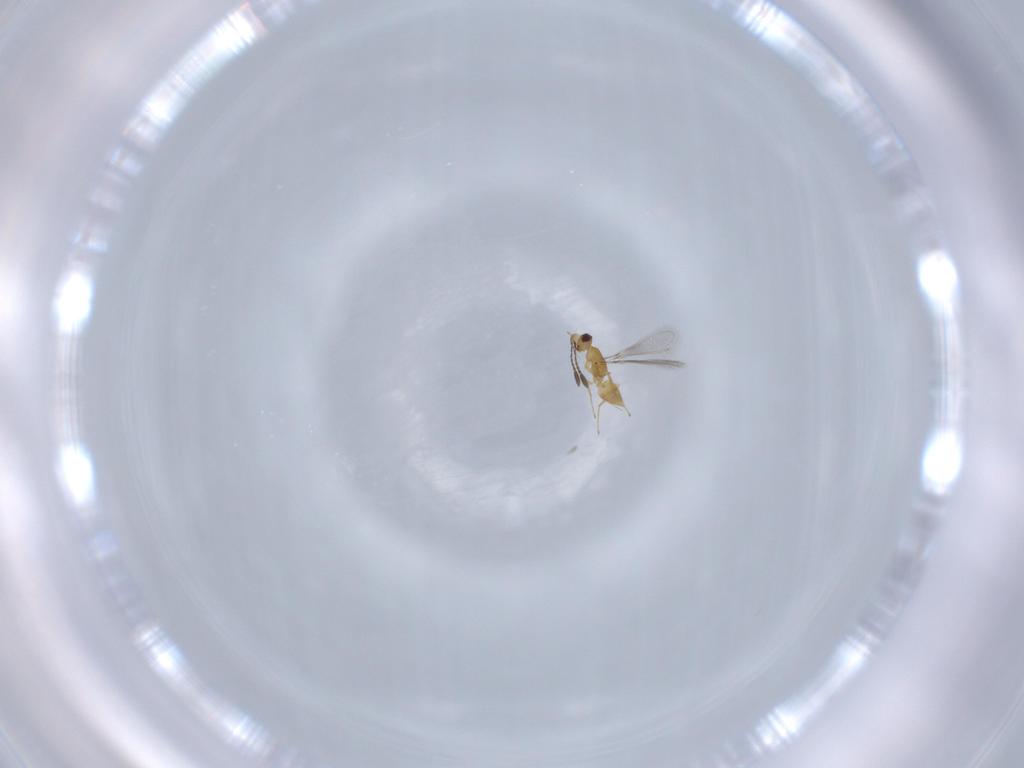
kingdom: Animalia
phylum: Arthropoda
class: Insecta
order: Hymenoptera
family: Mymaridae
